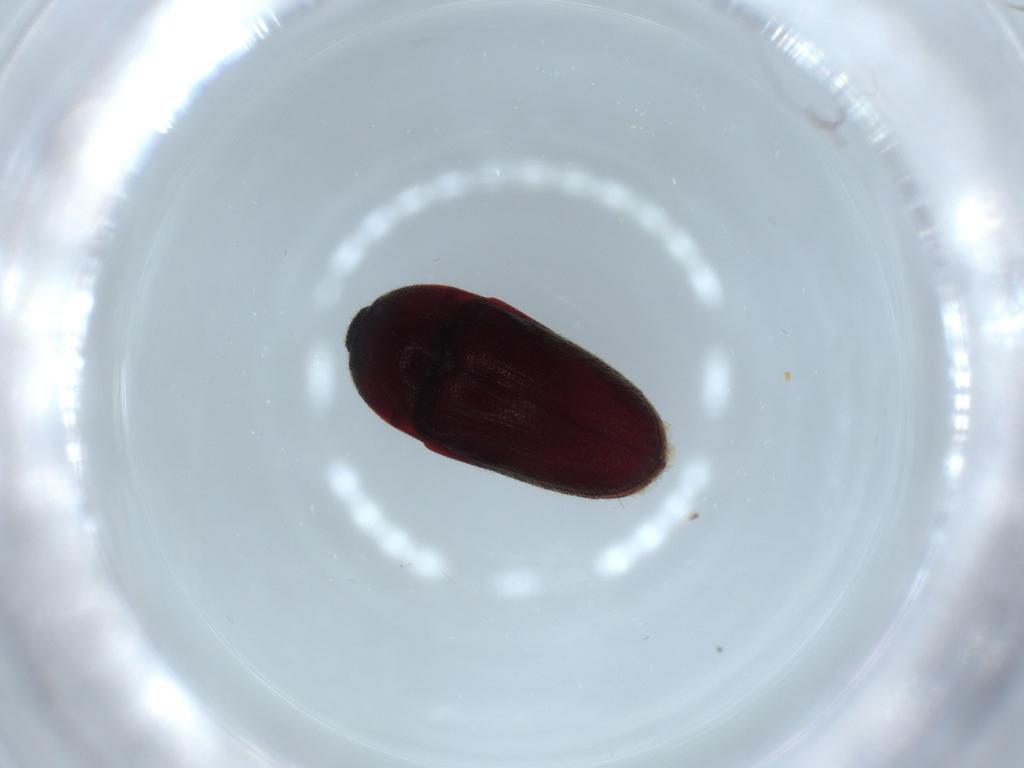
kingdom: Animalia
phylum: Arthropoda
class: Insecta
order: Coleoptera
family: Throscidae
